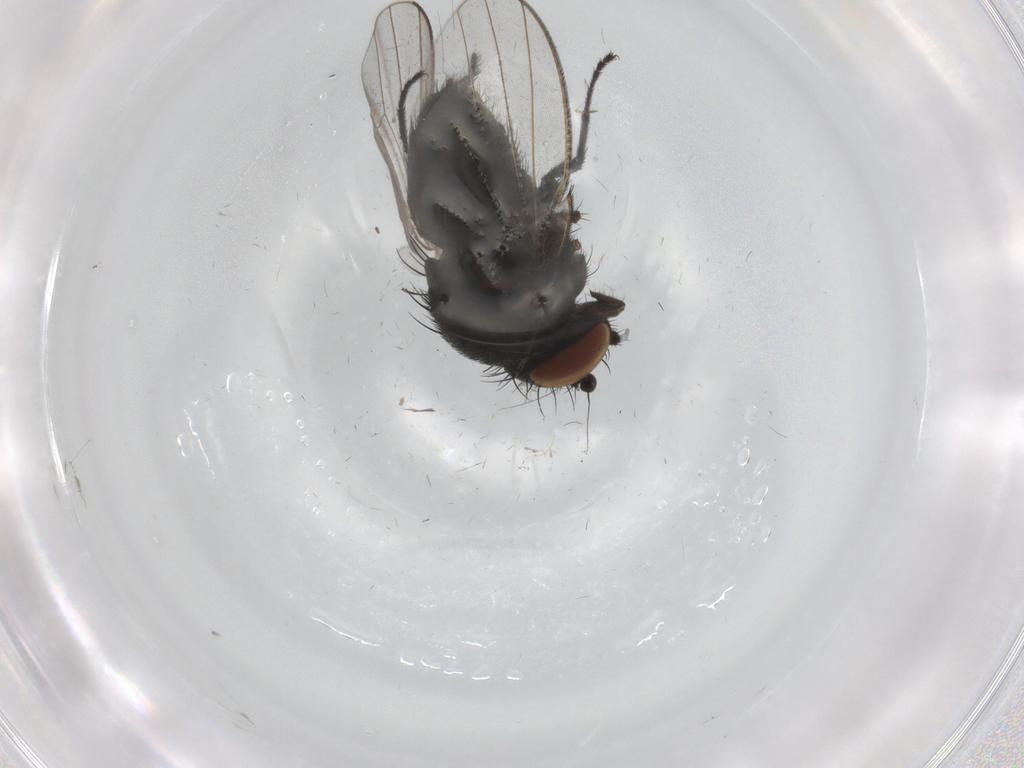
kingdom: Animalia
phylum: Arthropoda
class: Insecta
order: Diptera
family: Milichiidae
